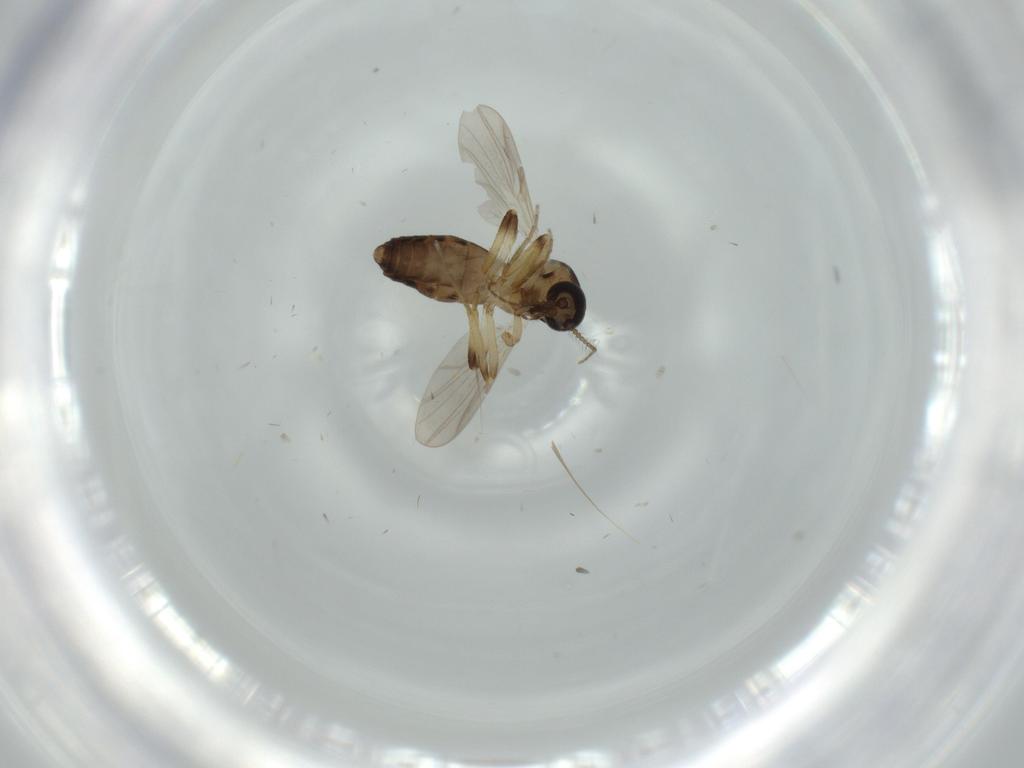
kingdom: Animalia
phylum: Arthropoda
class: Insecta
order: Diptera
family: Ceratopogonidae
